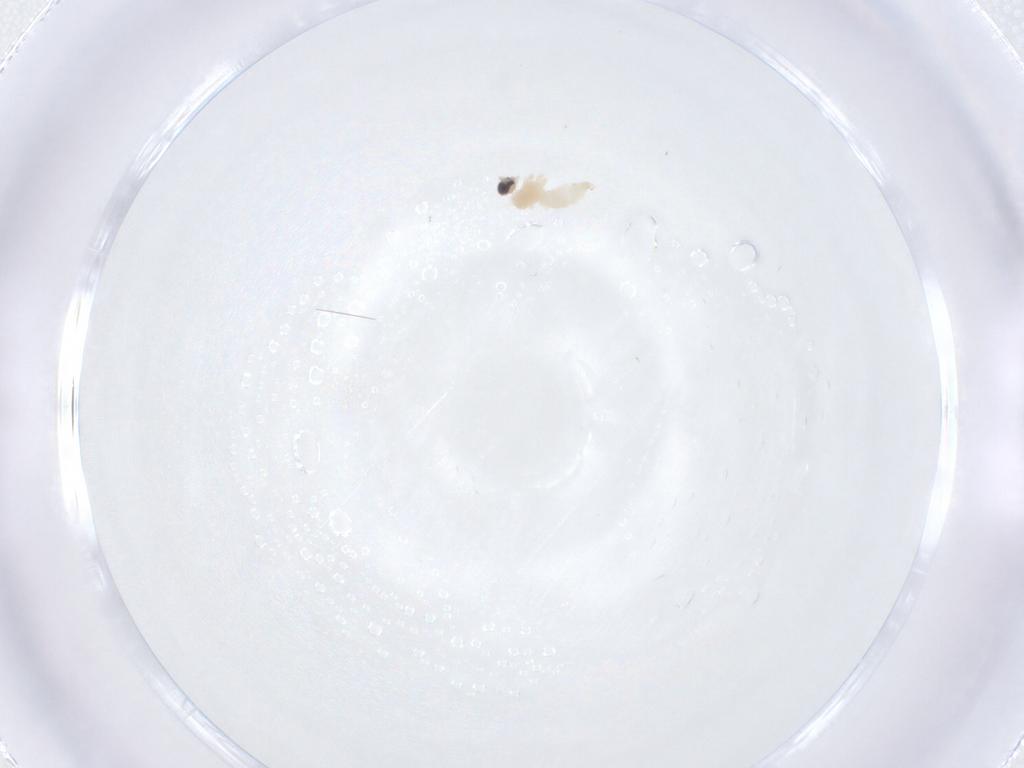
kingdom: Animalia
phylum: Arthropoda
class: Insecta
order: Diptera
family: Cecidomyiidae
